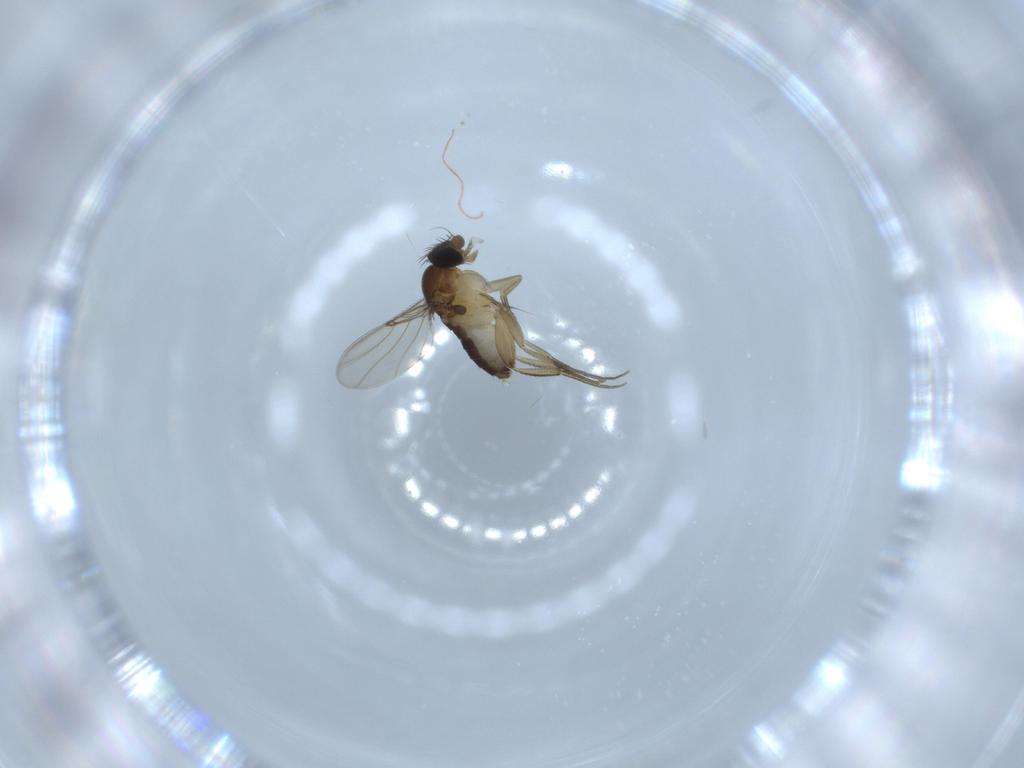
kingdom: Animalia
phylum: Arthropoda
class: Insecta
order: Diptera
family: Phoridae
